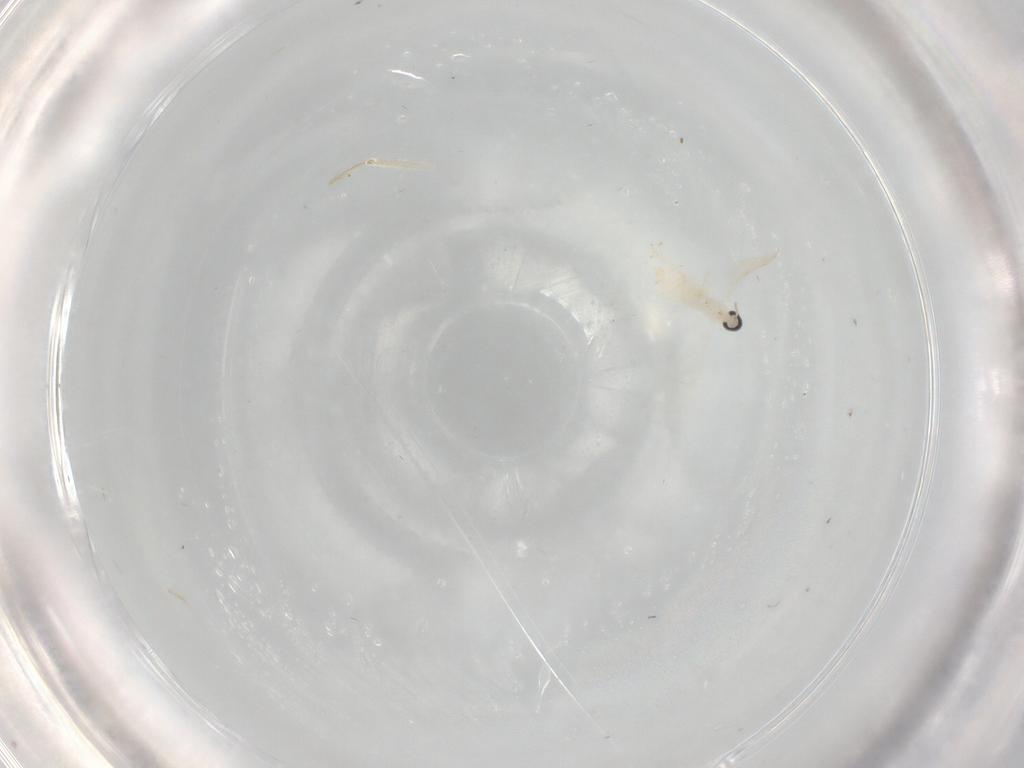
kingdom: Animalia
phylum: Arthropoda
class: Insecta
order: Diptera
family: Cecidomyiidae
